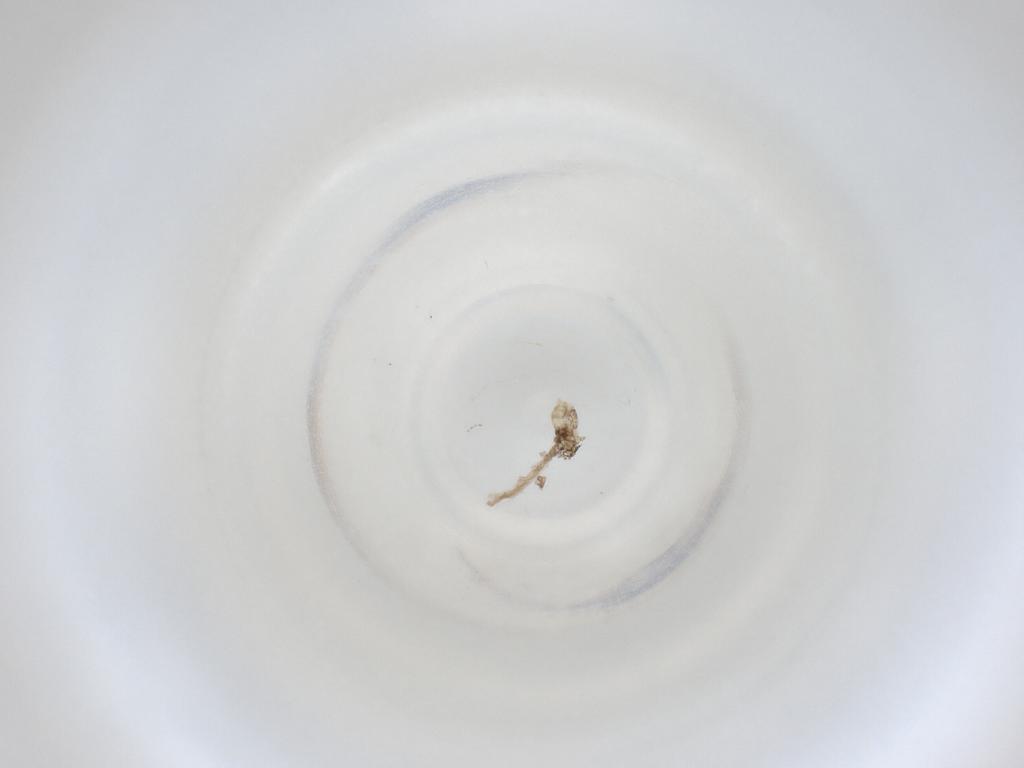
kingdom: Animalia
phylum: Arthropoda
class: Insecta
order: Diptera
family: Cecidomyiidae
